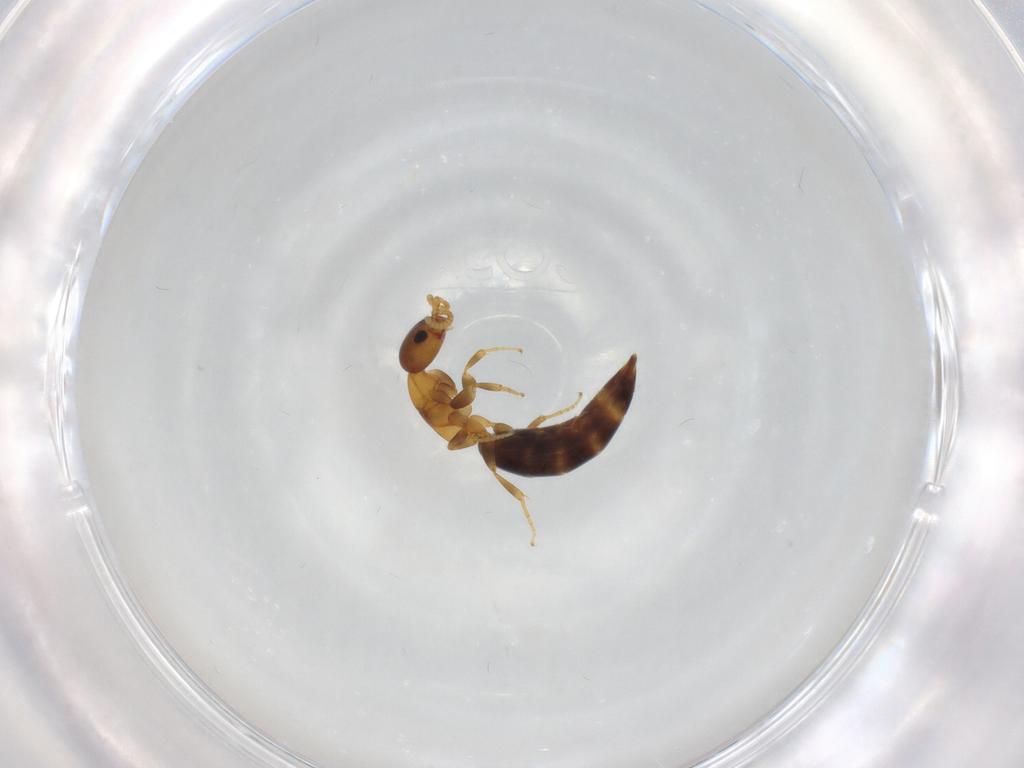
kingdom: Animalia
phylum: Arthropoda
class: Insecta
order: Hymenoptera
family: Bethylidae
